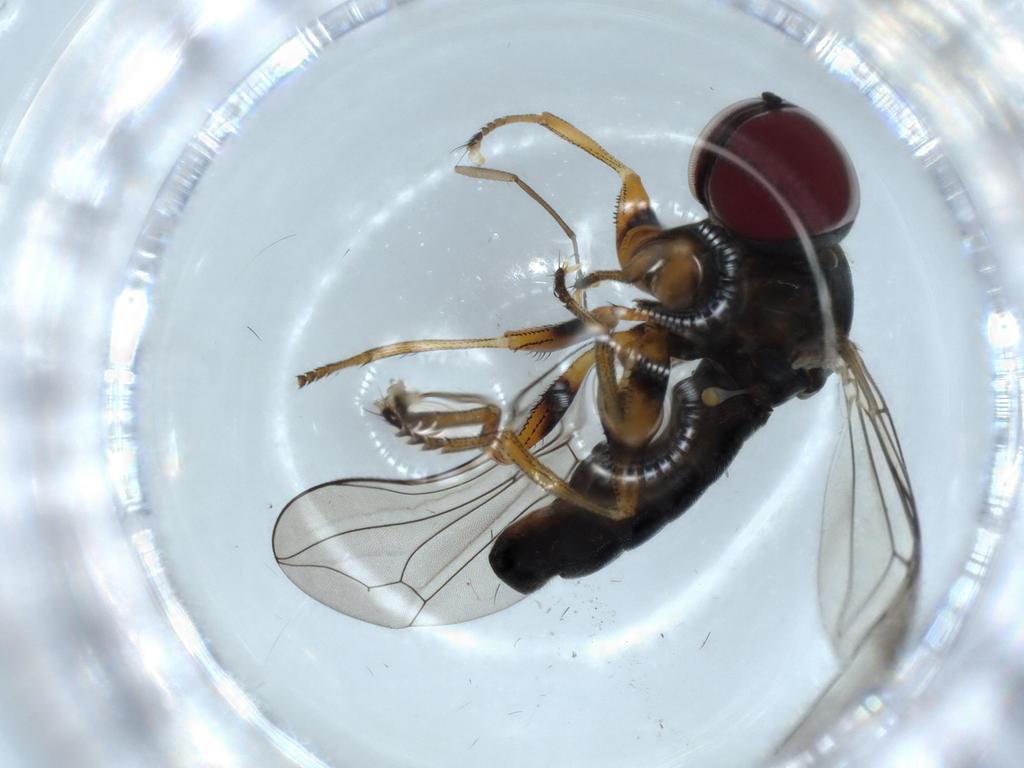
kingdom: Animalia
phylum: Arthropoda
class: Insecta
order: Diptera
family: Pipunculidae
